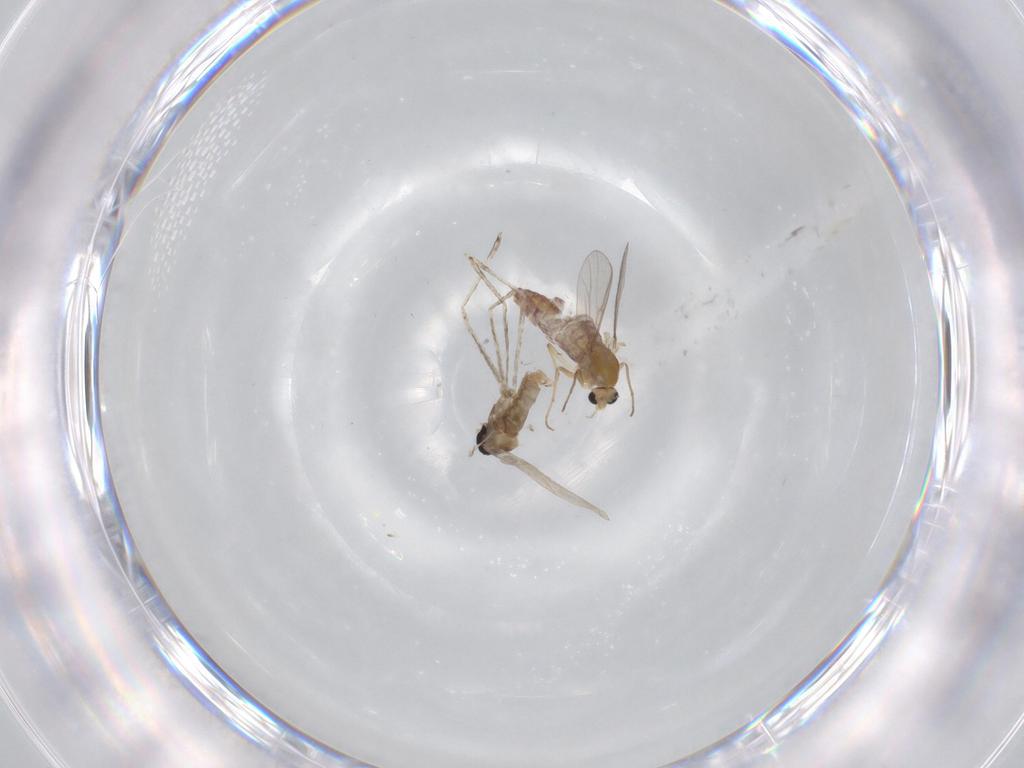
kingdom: Animalia
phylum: Arthropoda
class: Insecta
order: Diptera
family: Chironomidae
